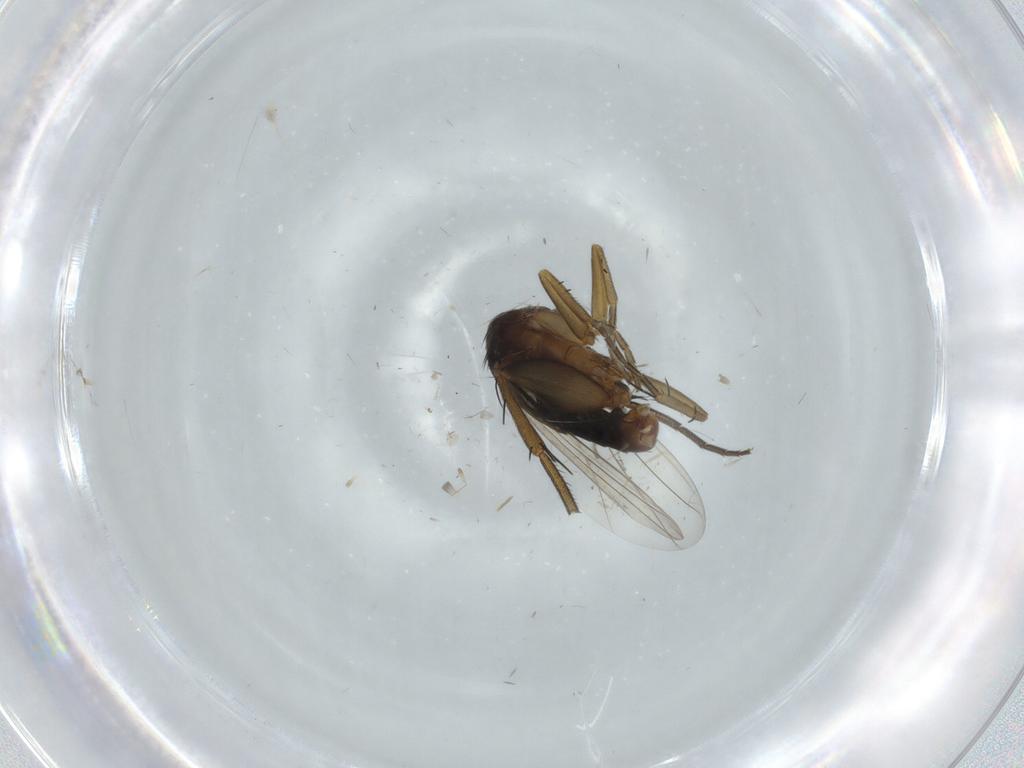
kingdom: Animalia
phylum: Arthropoda
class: Insecta
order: Diptera
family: Phoridae
